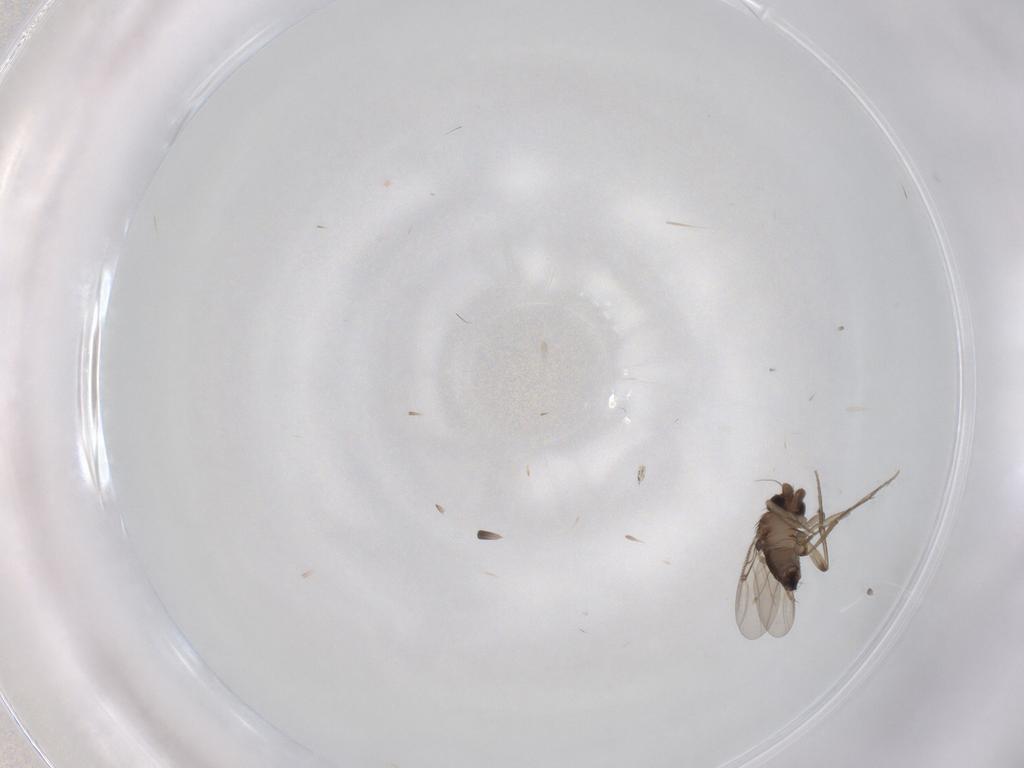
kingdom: Animalia
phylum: Arthropoda
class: Insecta
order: Diptera
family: Phoridae
